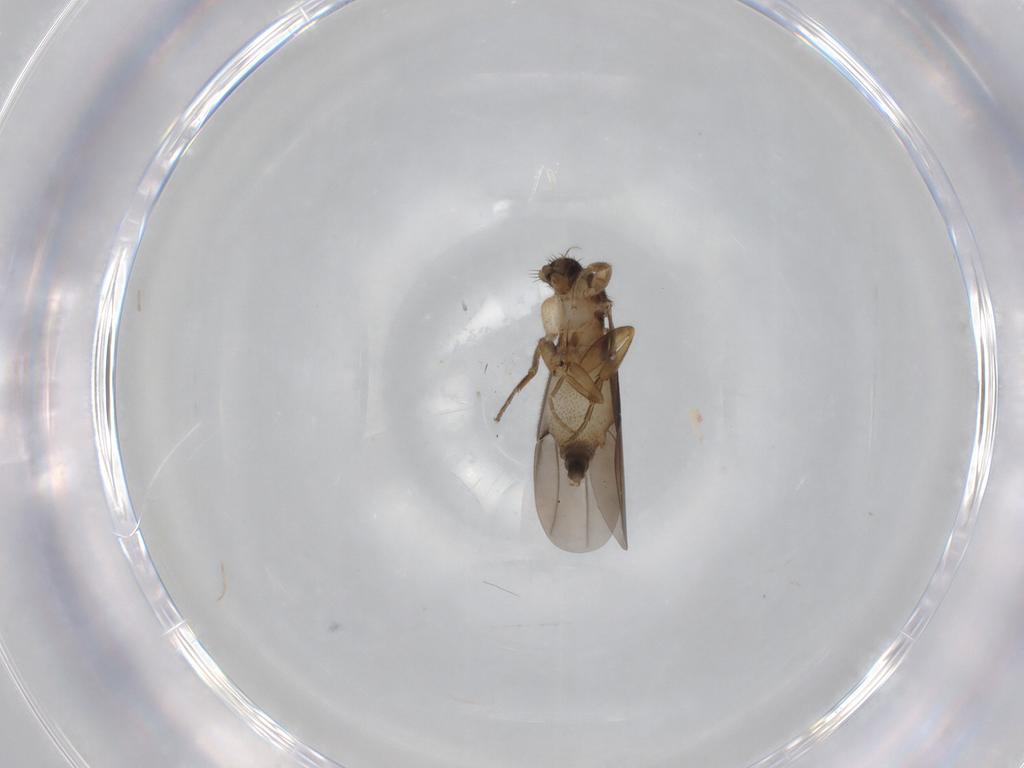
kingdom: Animalia
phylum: Arthropoda
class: Insecta
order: Diptera
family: Phoridae
